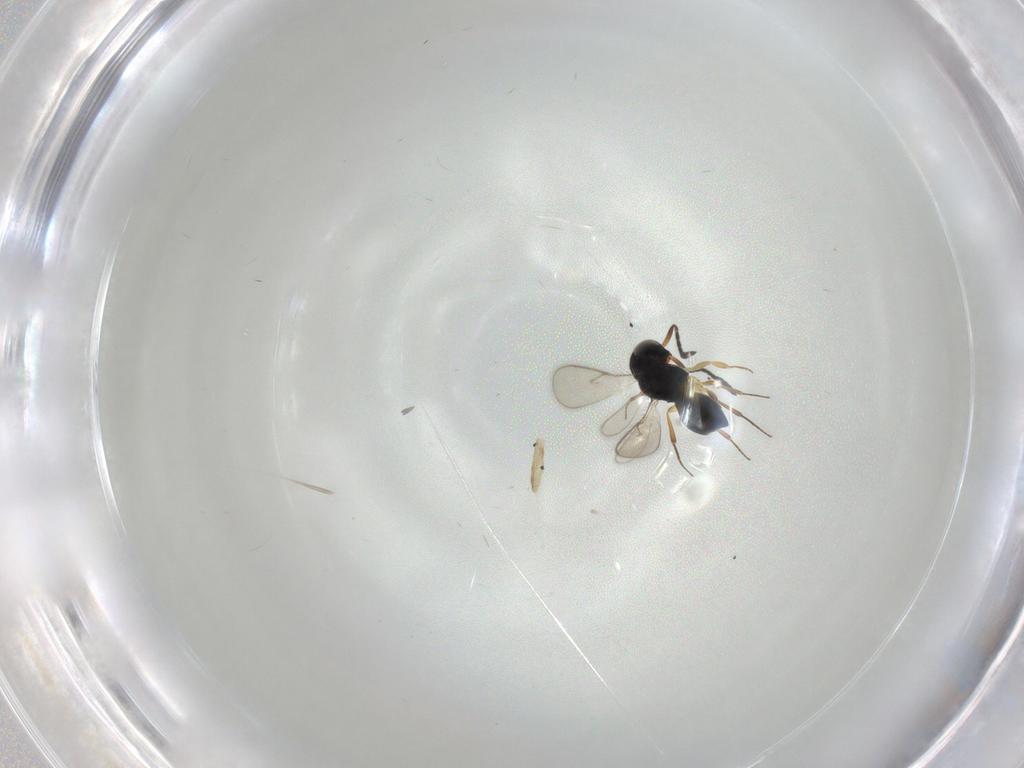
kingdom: Animalia
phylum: Arthropoda
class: Insecta
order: Hymenoptera
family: Scelionidae
